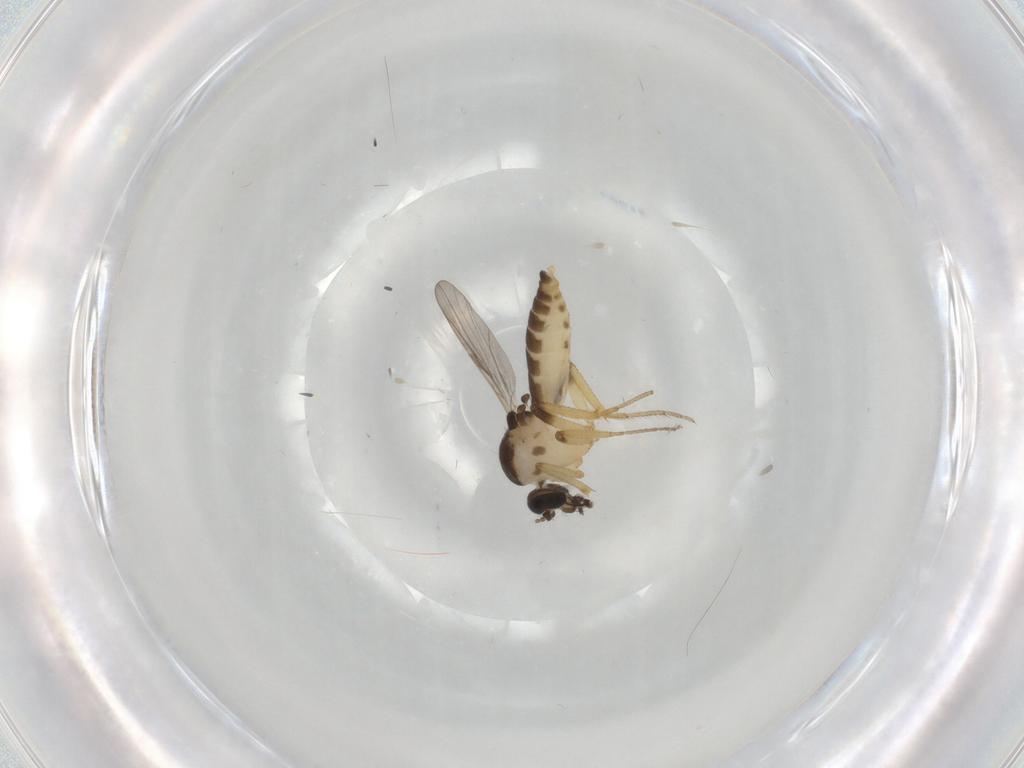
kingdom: Animalia
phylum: Arthropoda
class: Insecta
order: Diptera
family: Ceratopogonidae
